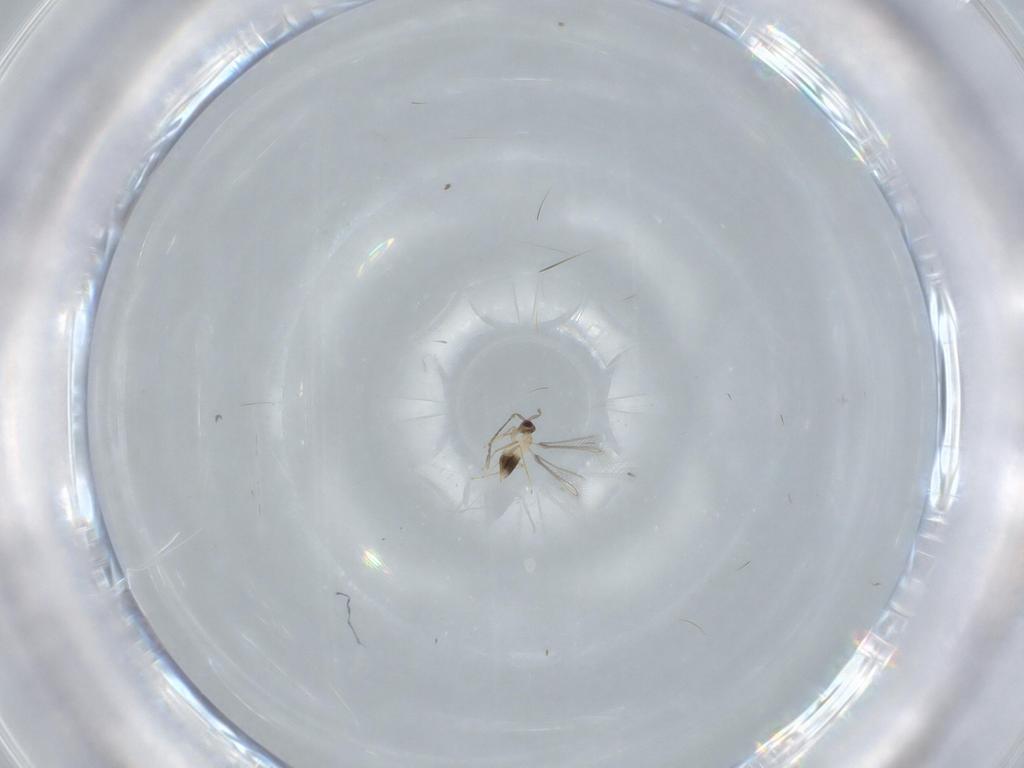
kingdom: Animalia
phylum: Arthropoda
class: Insecta
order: Hymenoptera
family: Mymaridae
